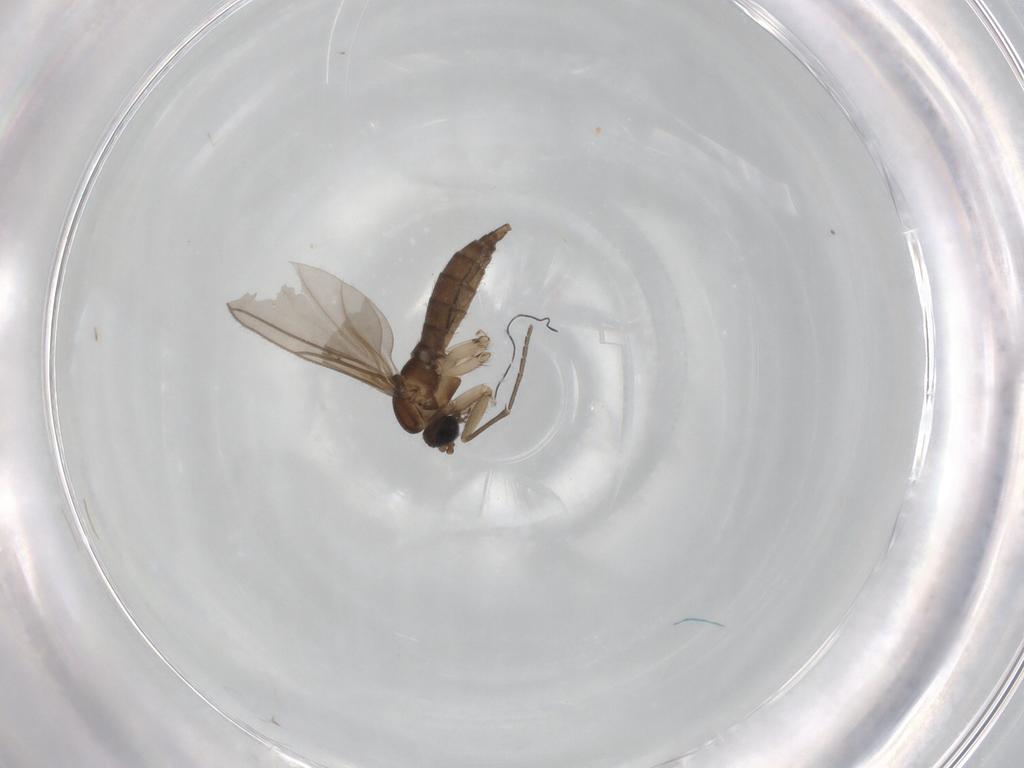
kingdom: Animalia
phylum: Arthropoda
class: Insecta
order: Diptera
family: Sciaridae
